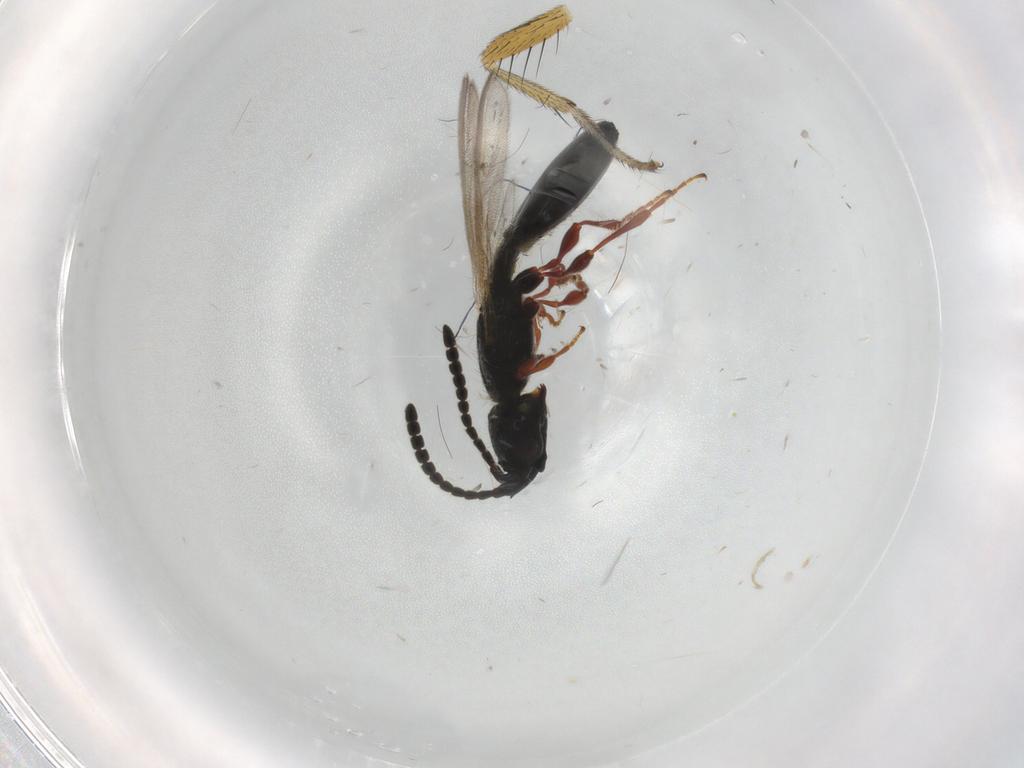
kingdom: Animalia
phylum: Arthropoda
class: Insecta
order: Hymenoptera
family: Diapriidae
